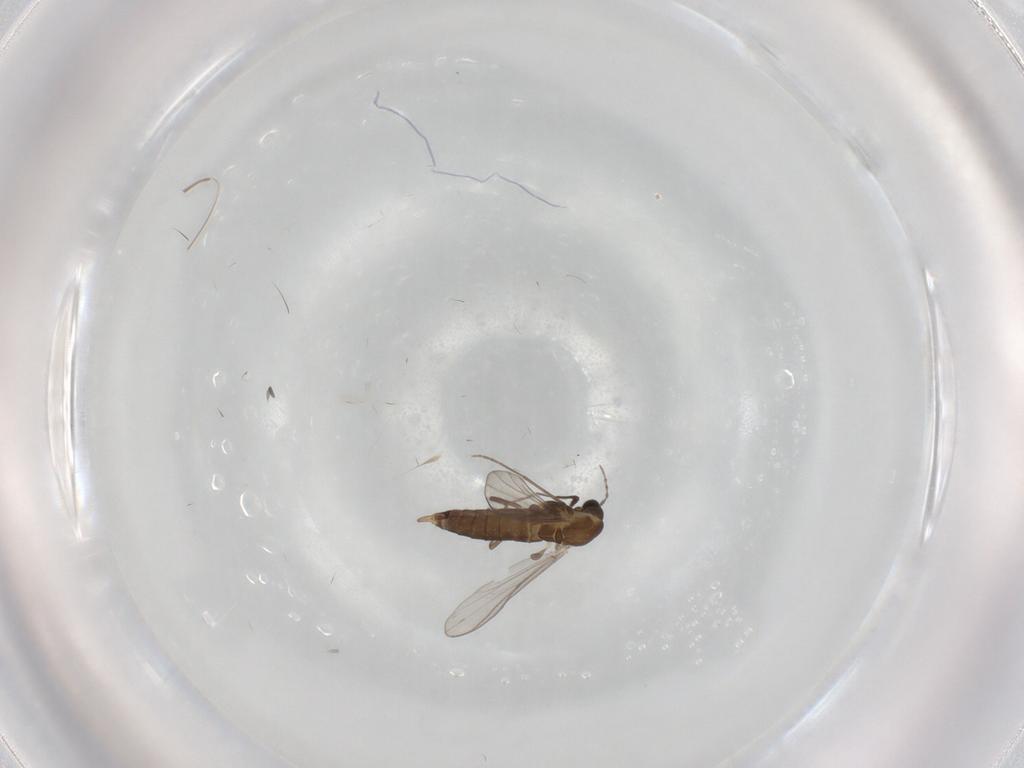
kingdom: Animalia
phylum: Arthropoda
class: Insecta
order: Diptera
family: Chironomidae
